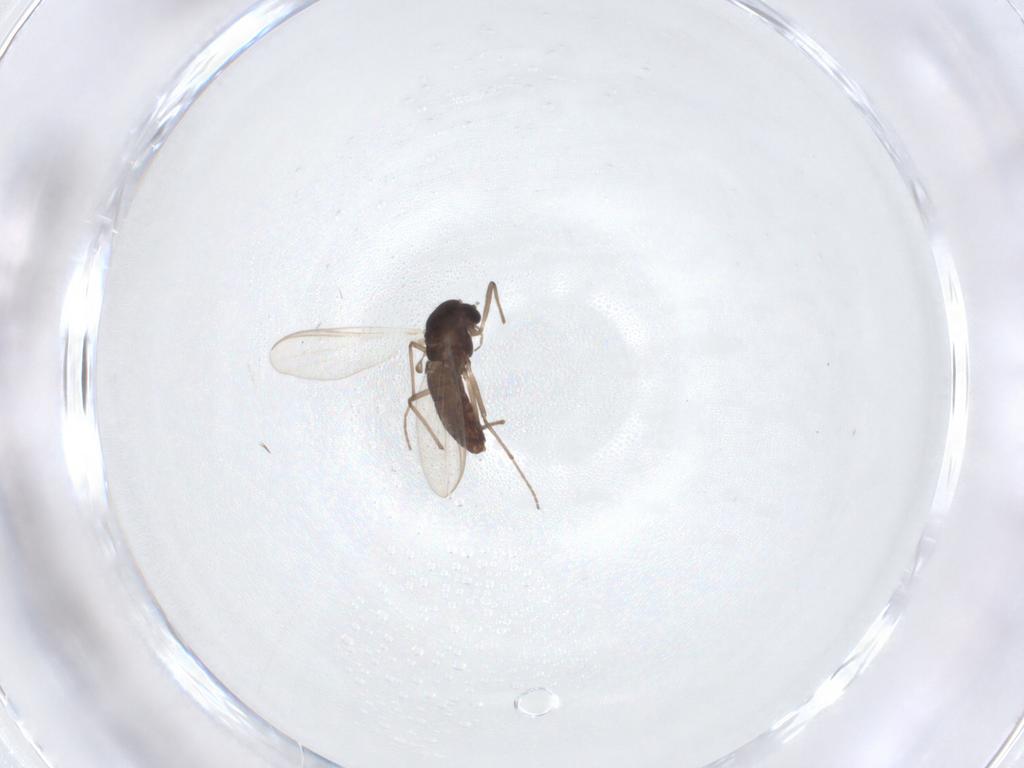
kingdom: Animalia
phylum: Arthropoda
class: Insecta
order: Diptera
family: Chironomidae
